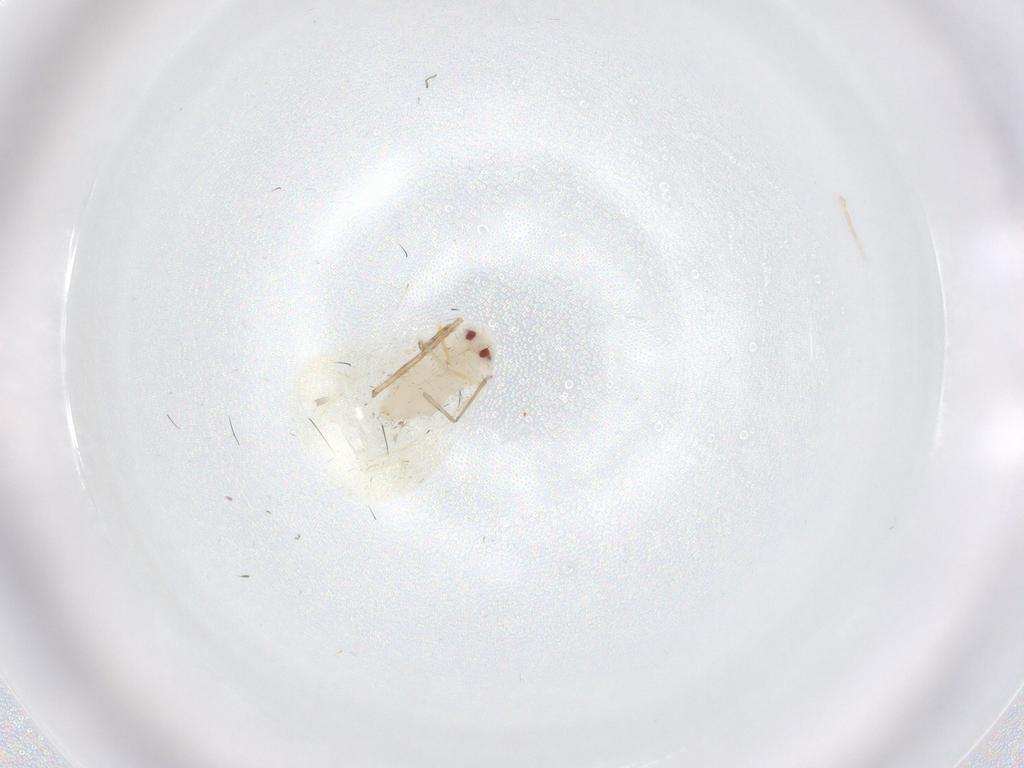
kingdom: Animalia
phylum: Arthropoda
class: Insecta
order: Hemiptera
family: Aleyrodidae
